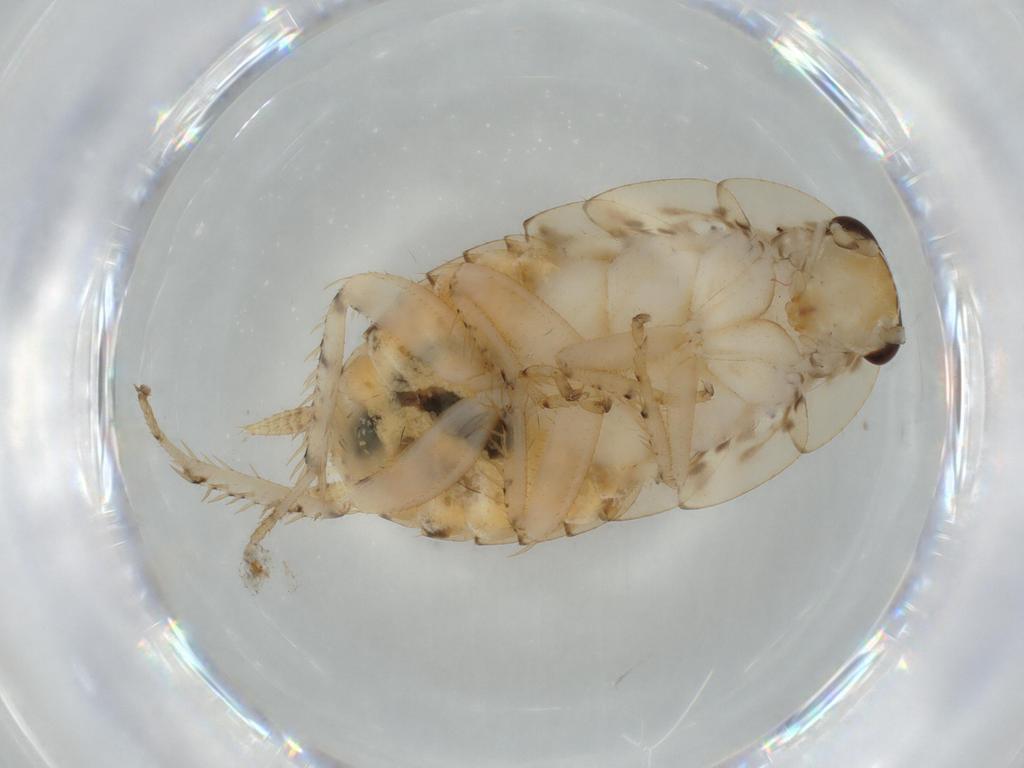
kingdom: Animalia
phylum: Arthropoda
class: Insecta
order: Blattodea
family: Ectobiidae
